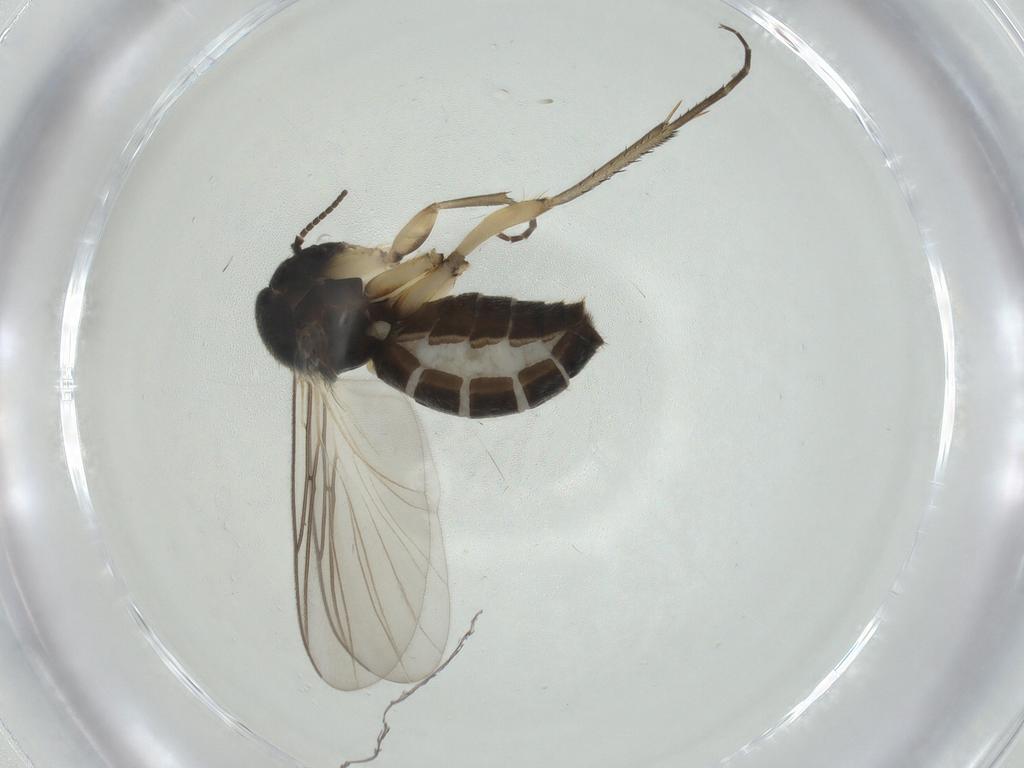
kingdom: Animalia
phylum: Arthropoda
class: Insecta
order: Diptera
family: Mycetophilidae
